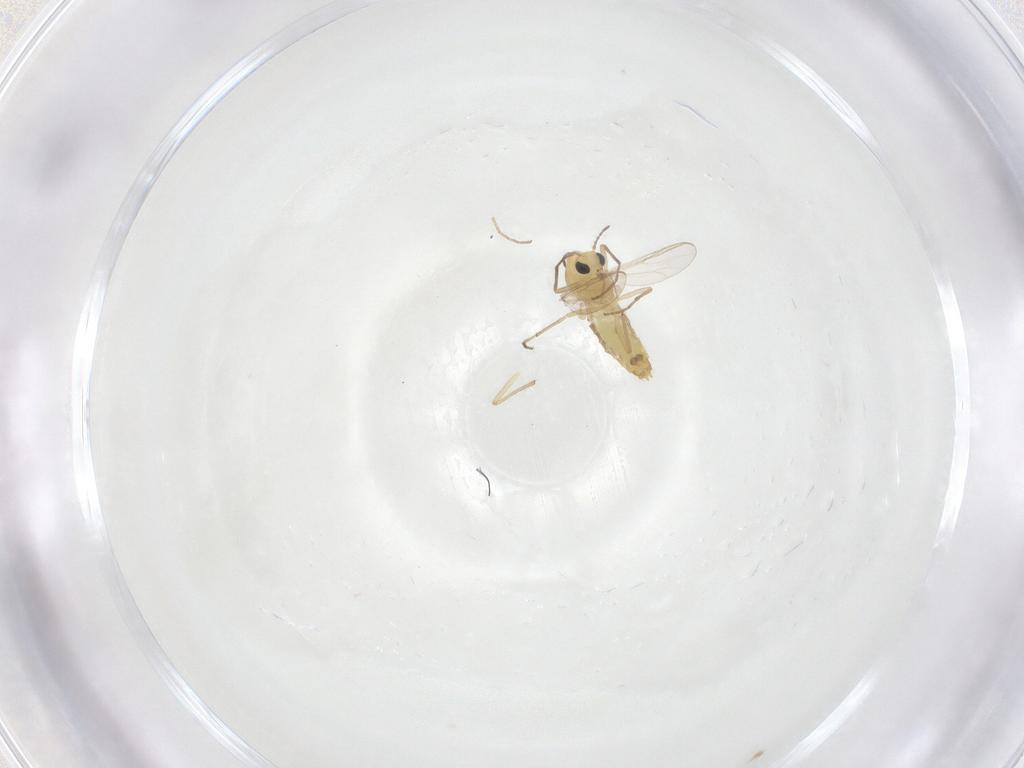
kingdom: Animalia
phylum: Arthropoda
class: Insecta
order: Diptera
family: Chironomidae
